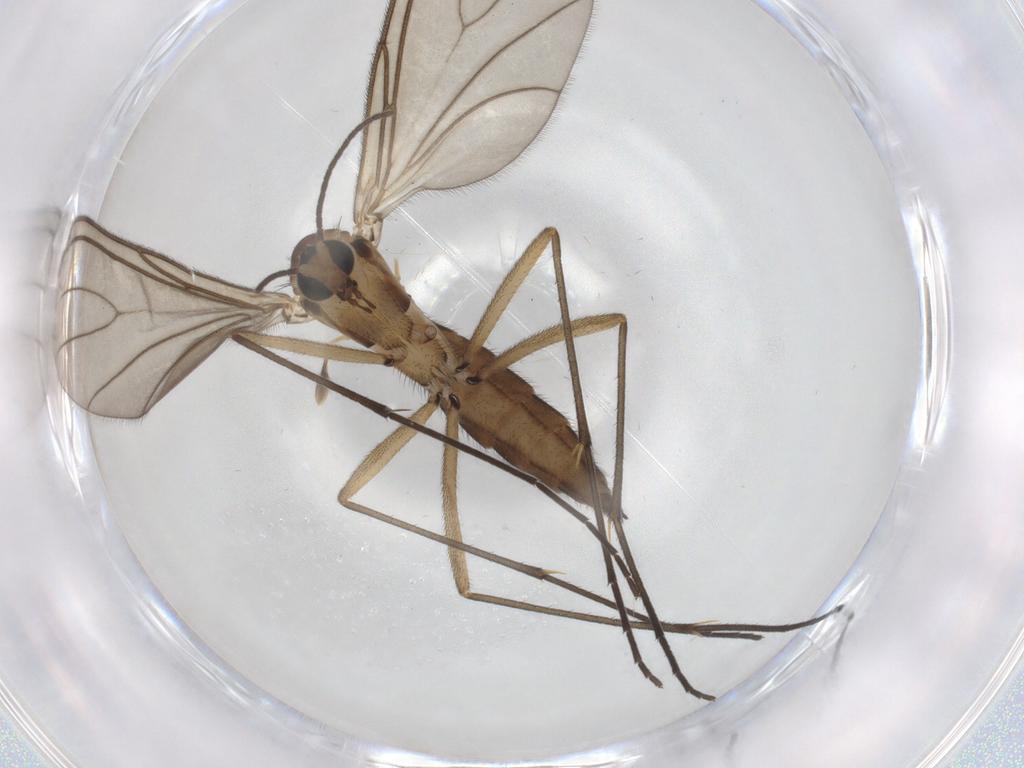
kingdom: Animalia
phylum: Arthropoda
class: Insecta
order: Diptera
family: Sciaridae
